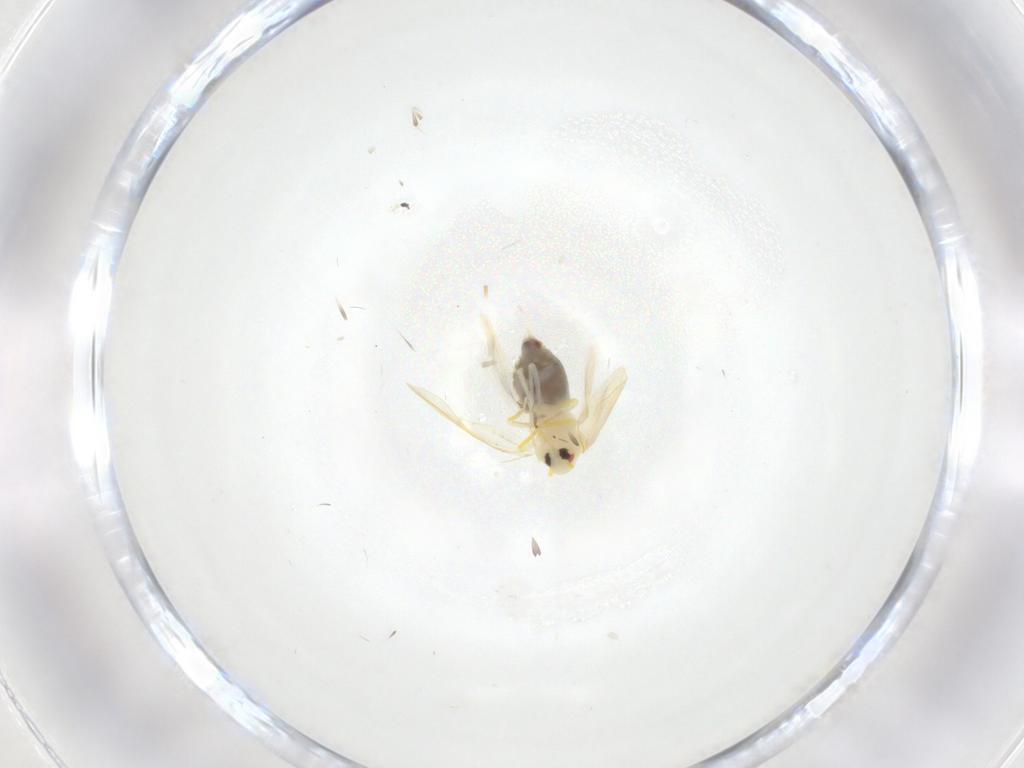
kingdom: Animalia
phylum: Arthropoda
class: Insecta
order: Hemiptera
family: Aleyrodidae
